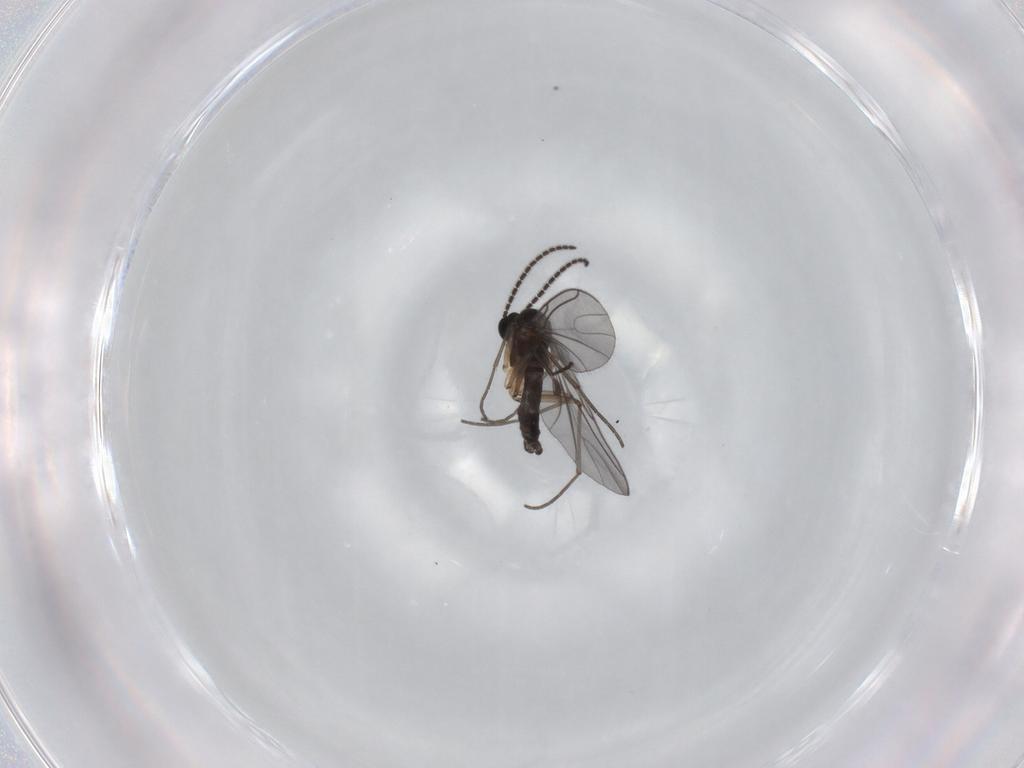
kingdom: Animalia
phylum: Arthropoda
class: Insecta
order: Diptera
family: Sciaridae
